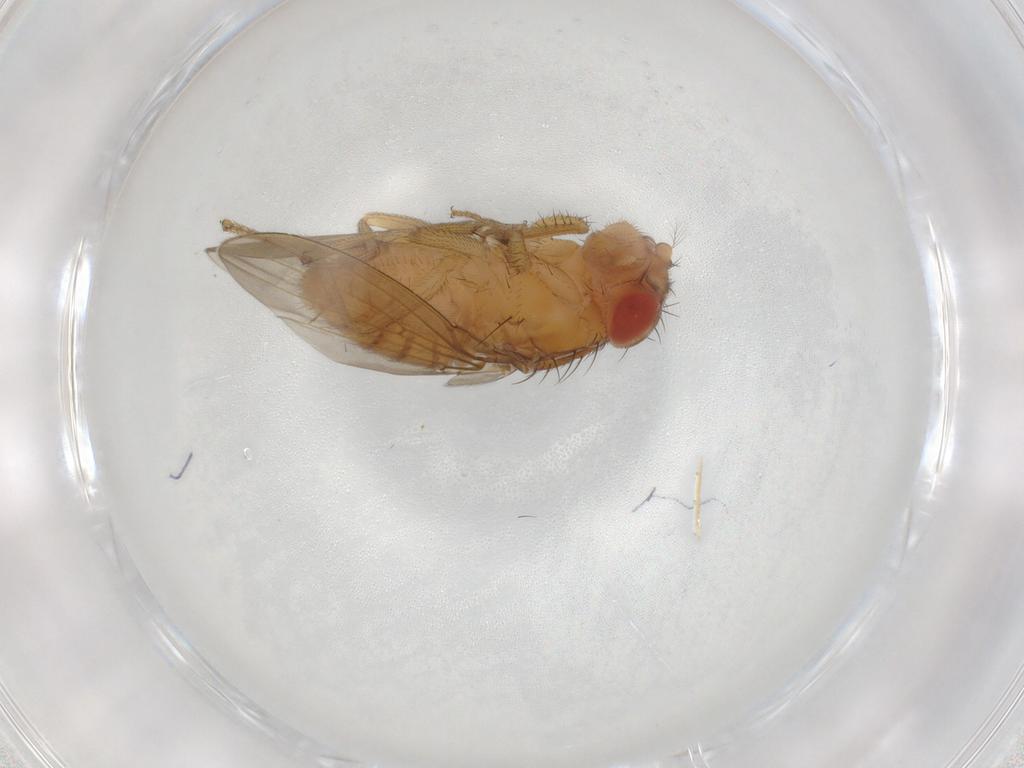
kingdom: Animalia
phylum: Arthropoda
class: Insecta
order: Diptera
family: Drosophilidae
